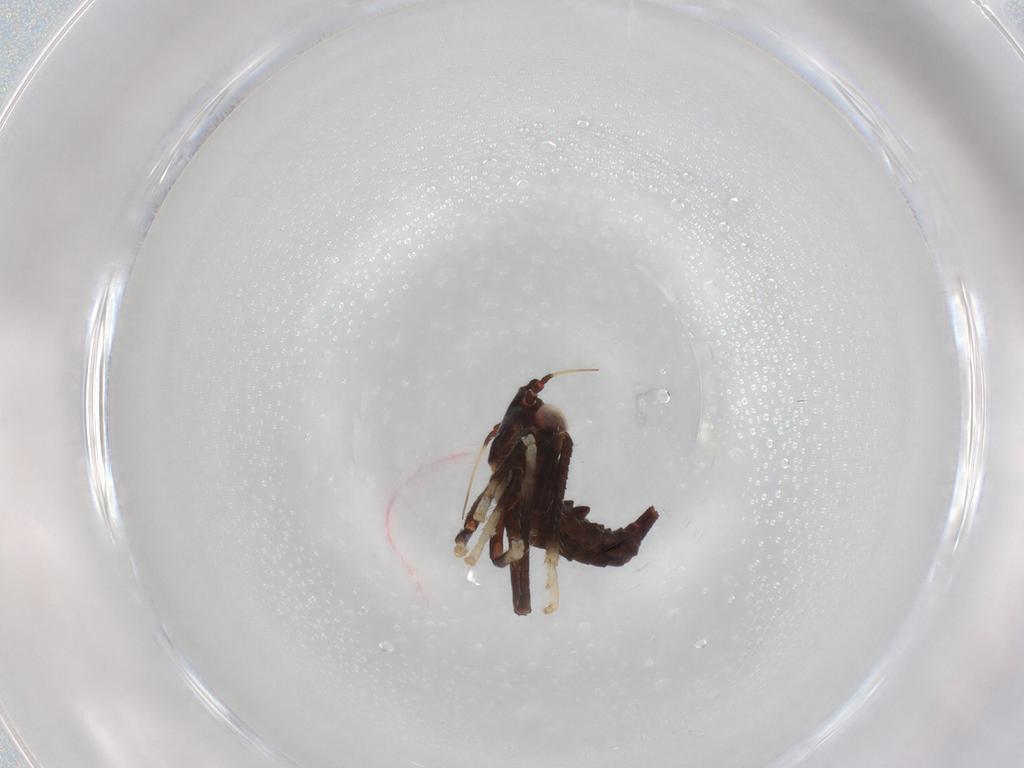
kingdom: Animalia
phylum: Arthropoda
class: Insecta
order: Hemiptera
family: Cicadellidae
